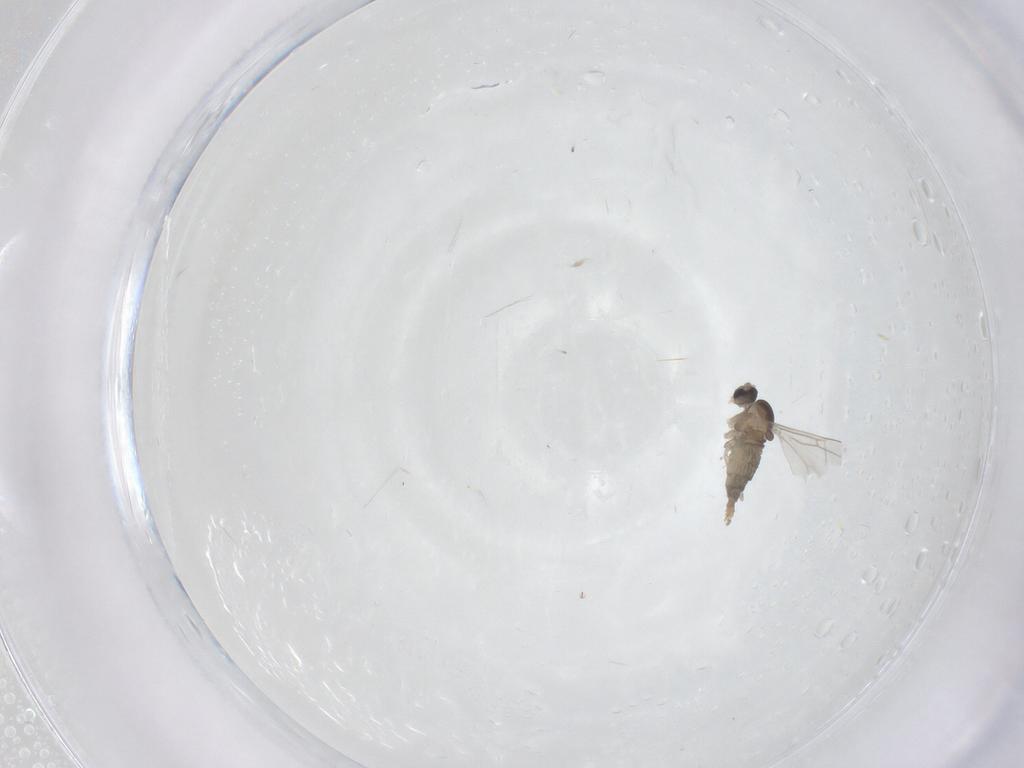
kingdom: Animalia
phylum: Arthropoda
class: Insecta
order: Diptera
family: Cecidomyiidae
